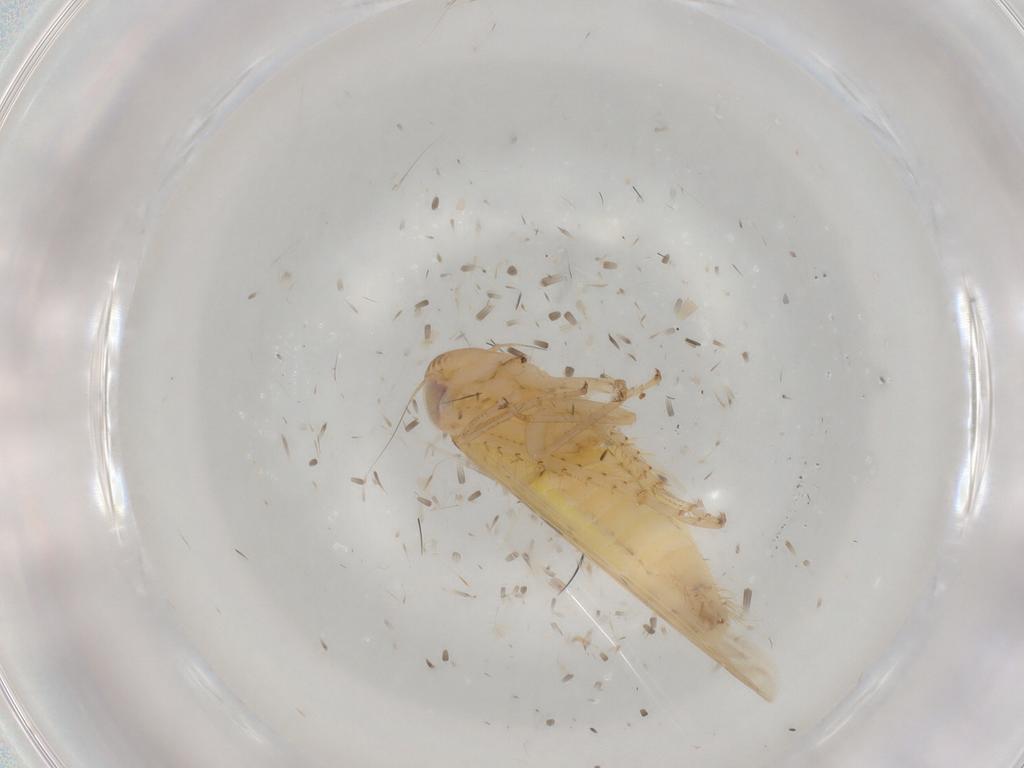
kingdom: Animalia
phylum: Arthropoda
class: Insecta
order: Hemiptera
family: Cicadellidae
